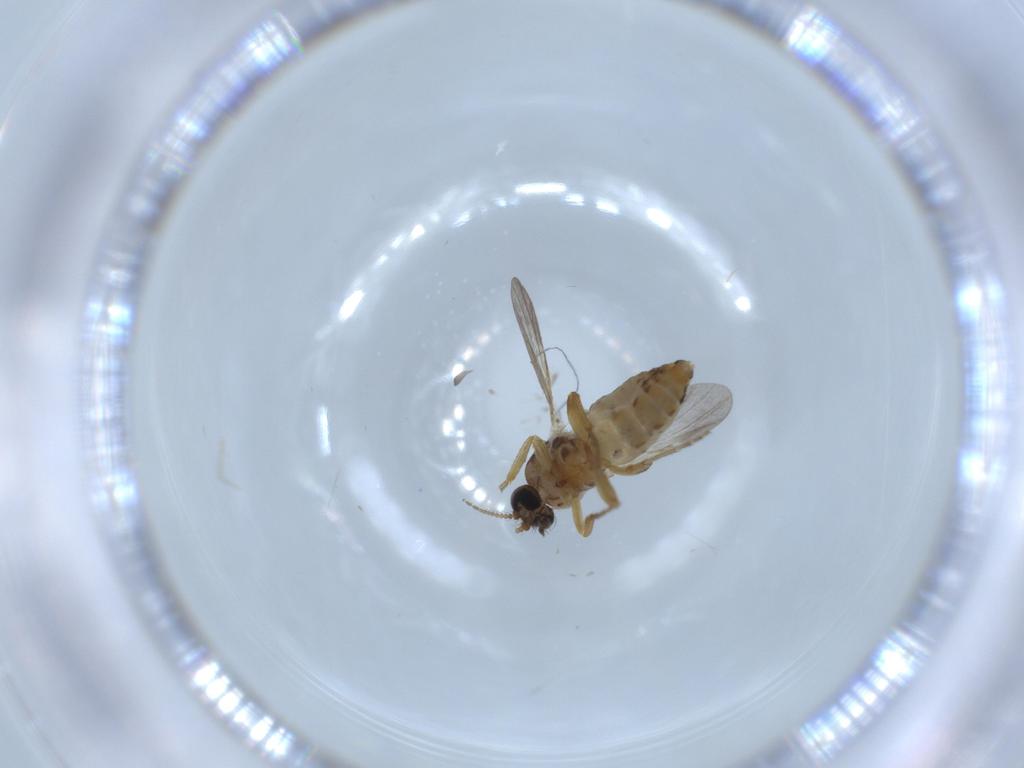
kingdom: Animalia
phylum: Arthropoda
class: Insecta
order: Diptera
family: Ceratopogonidae
